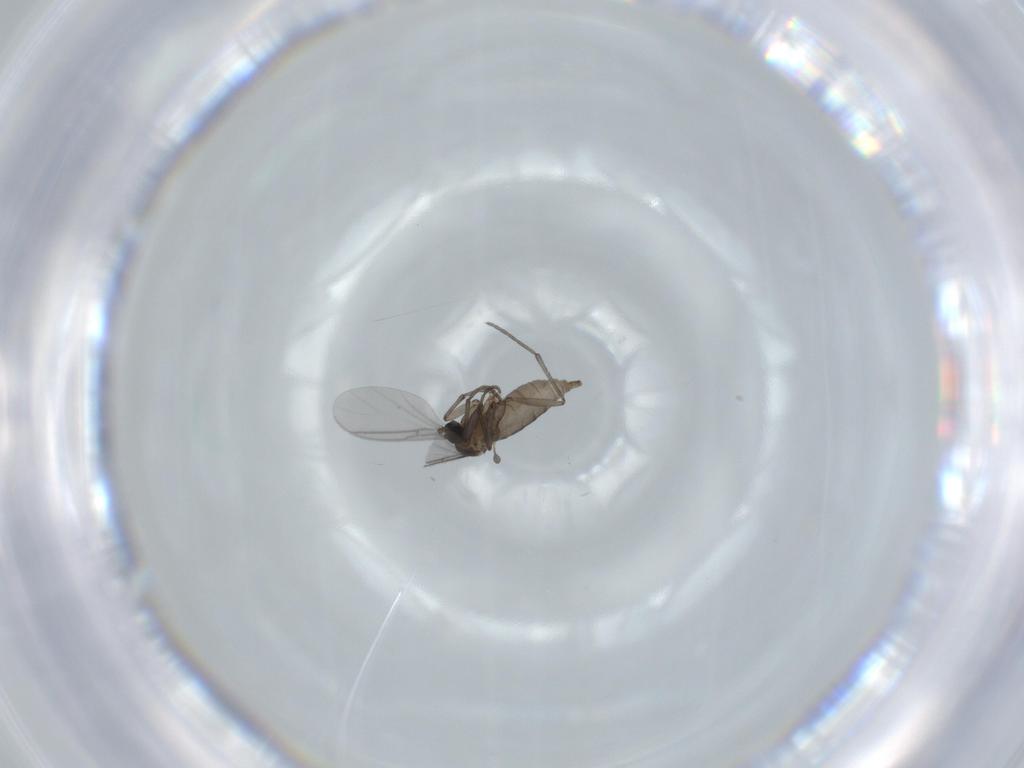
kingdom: Animalia
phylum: Arthropoda
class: Insecta
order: Diptera
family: Sciaridae
